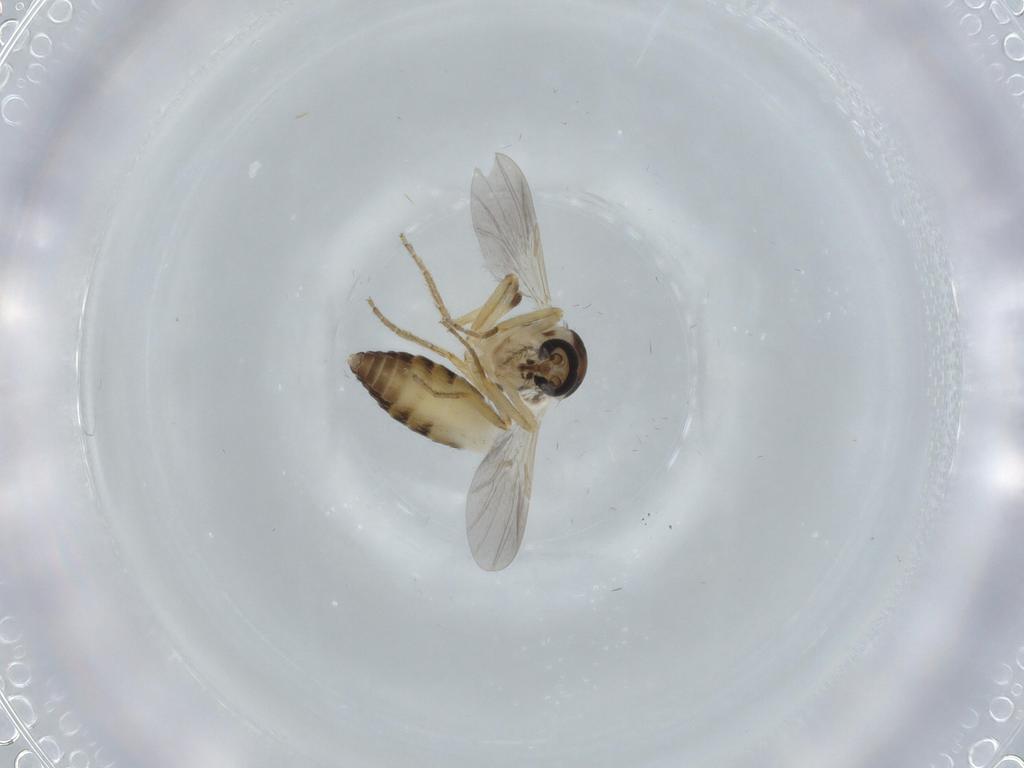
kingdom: Animalia
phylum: Arthropoda
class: Insecta
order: Diptera
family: Ceratopogonidae
